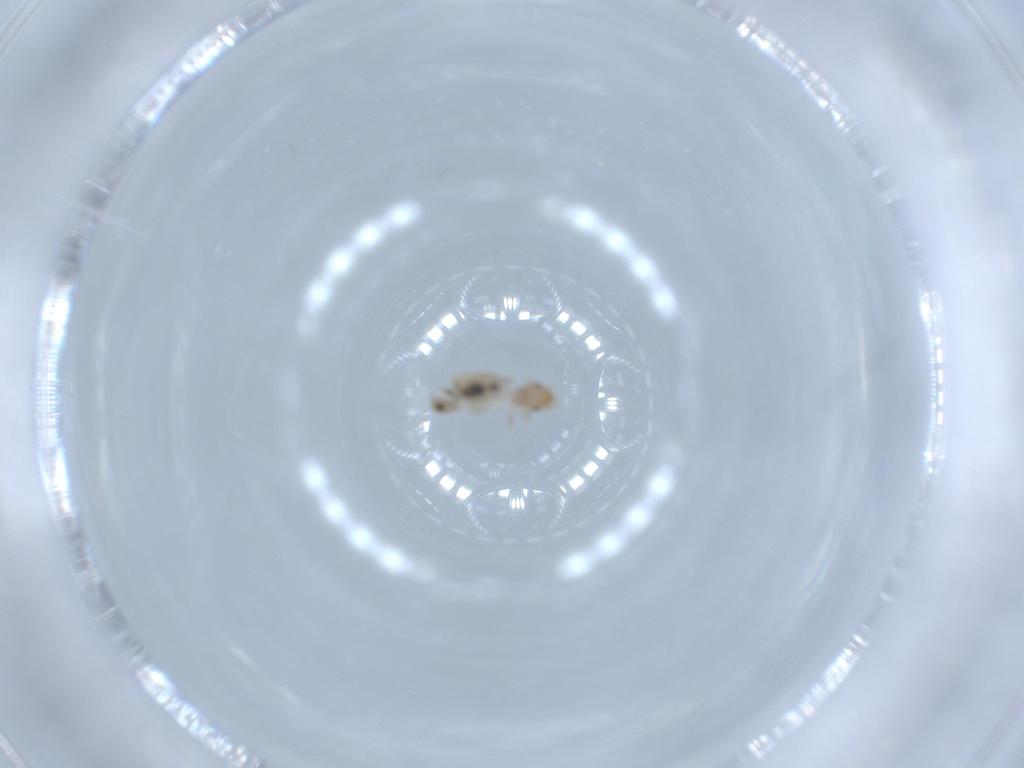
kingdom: Animalia
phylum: Arthropoda
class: Insecta
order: Psocodea
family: Liposcelididae
